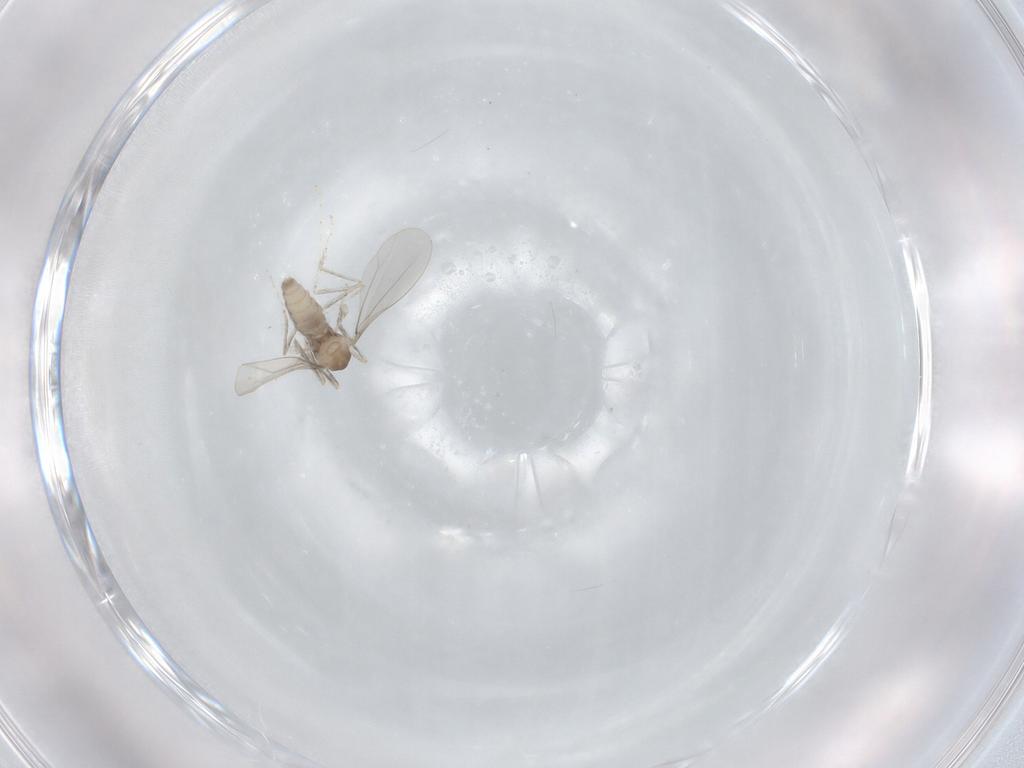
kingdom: Animalia
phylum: Arthropoda
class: Insecta
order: Diptera
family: Cecidomyiidae
